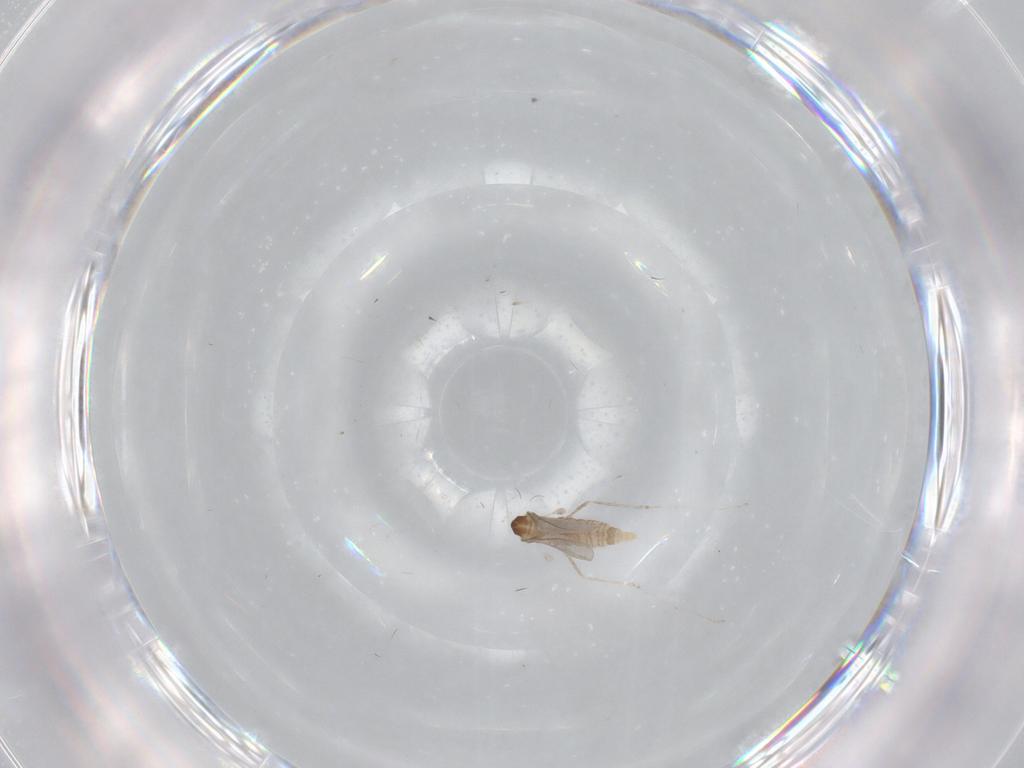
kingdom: Animalia
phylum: Arthropoda
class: Insecta
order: Diptera
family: Cecidomyiidae
